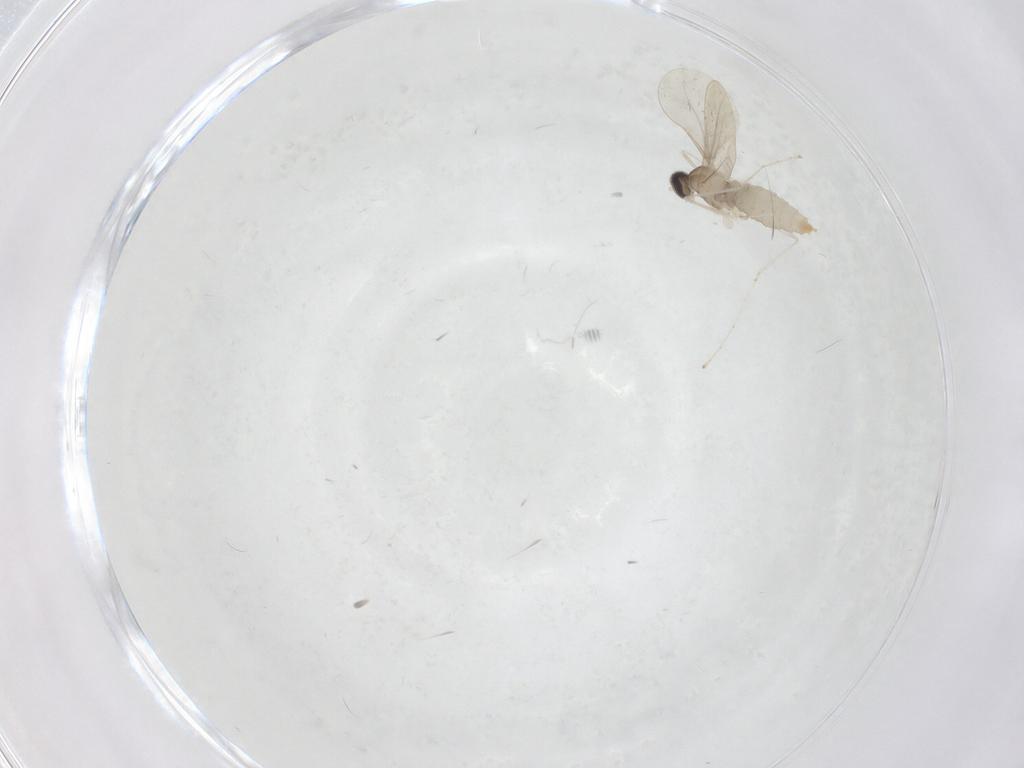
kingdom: Animalia
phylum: Arthropoda
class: Insecta
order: Diptera
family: Cecidomyiidae
